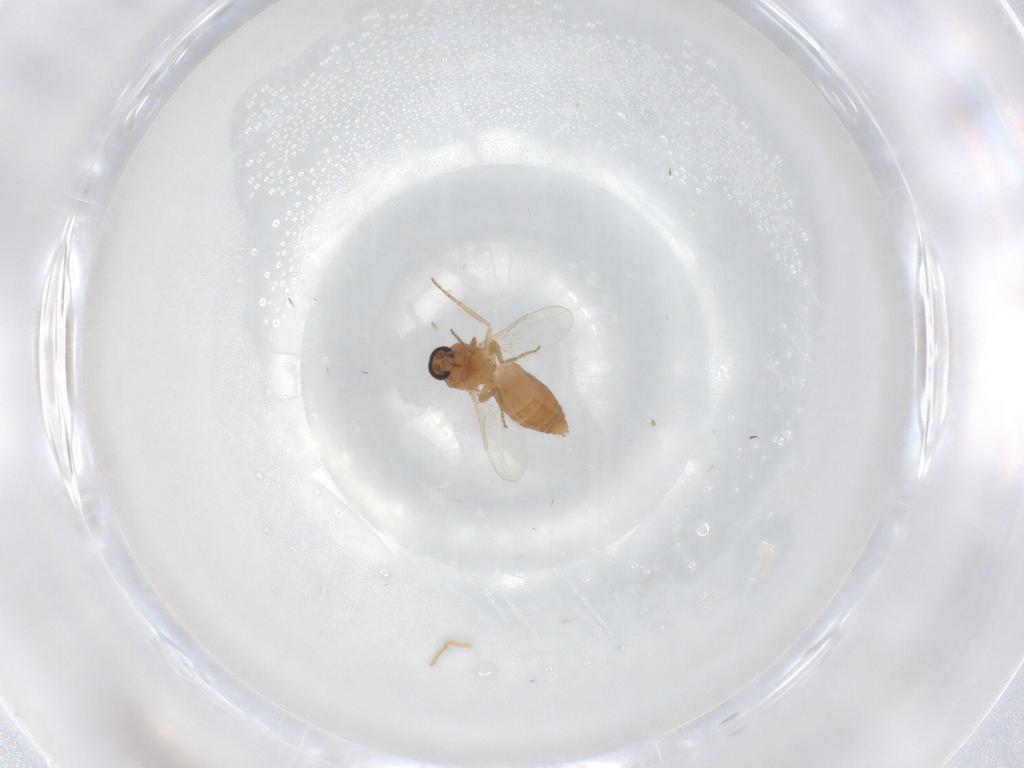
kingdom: Animalia
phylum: Arthropoda
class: Insecta
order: Diptera
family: Ceratopogonidae
